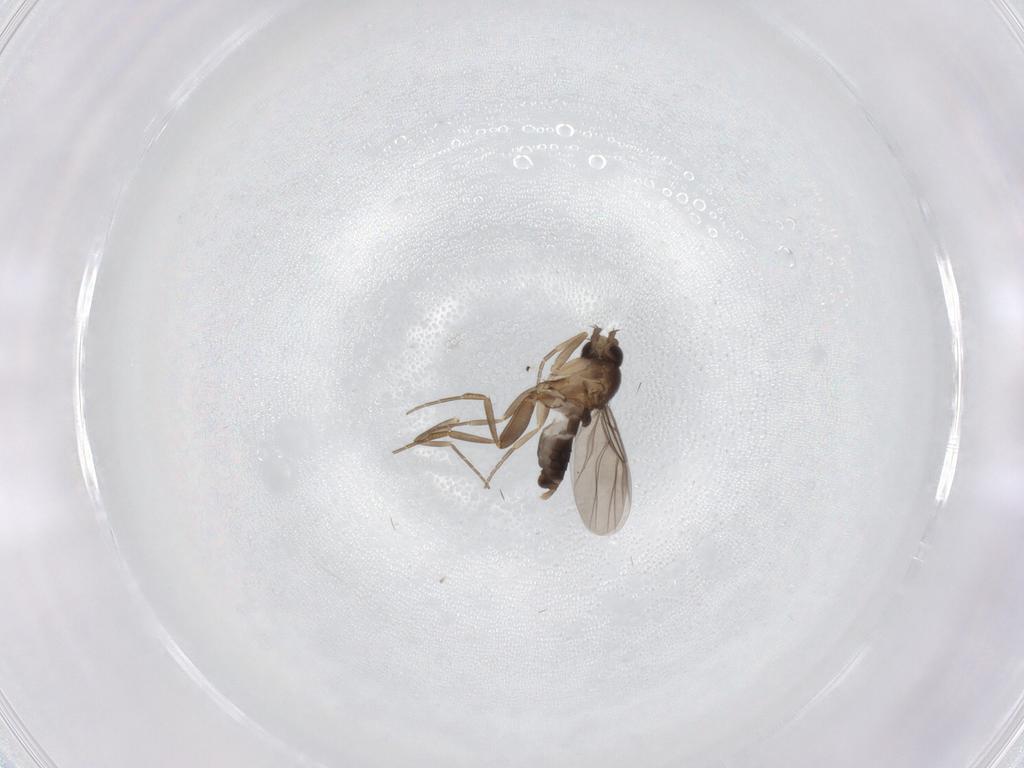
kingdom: Animalia
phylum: Arthropoda
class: Insecta
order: Diptera
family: Phoridae
